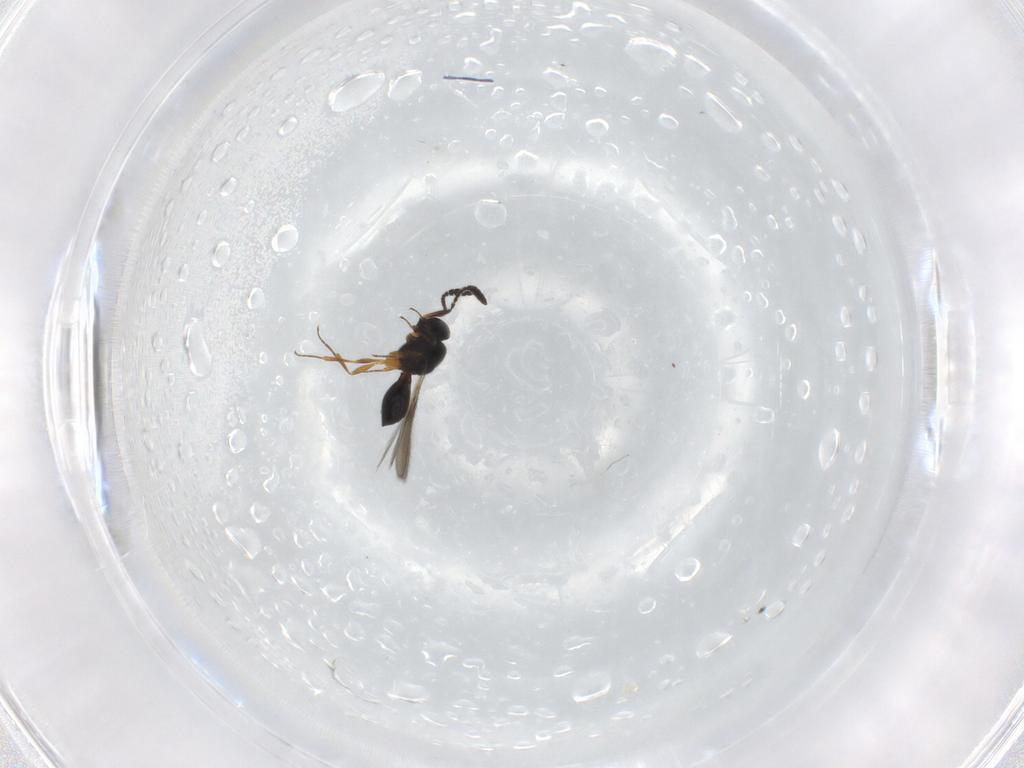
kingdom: Animalia
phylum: Arthropoda
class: Insecta
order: Hymenoptera
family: Scelionidae
